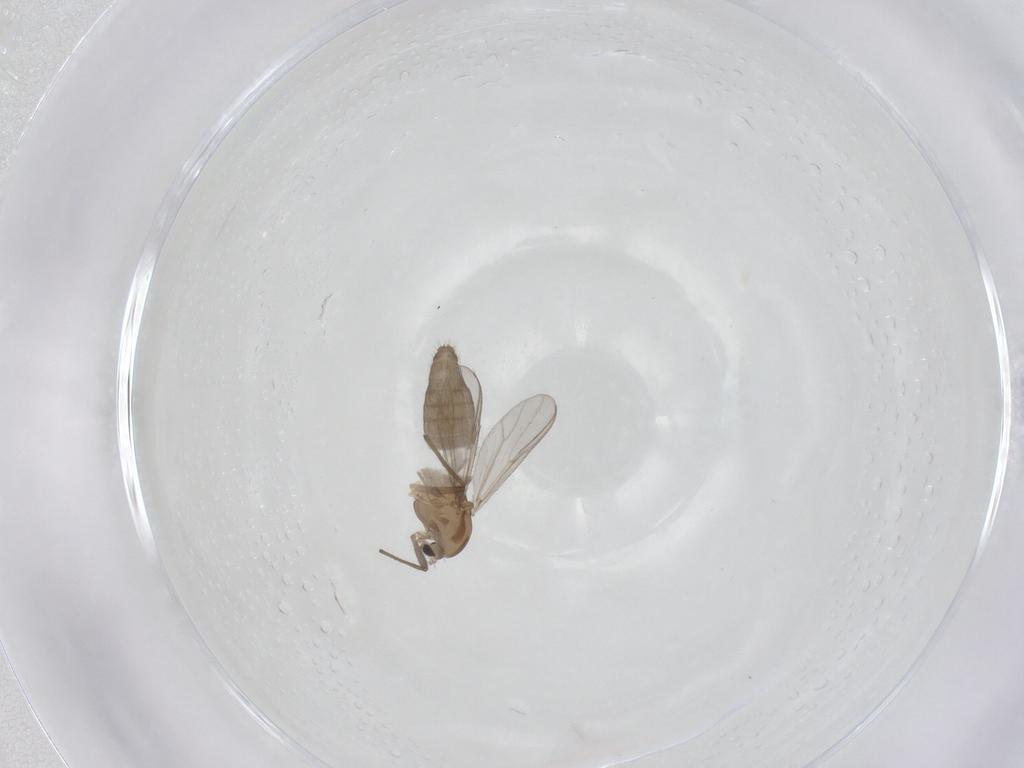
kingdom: Animalia
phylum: Arthropoda
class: Insecta
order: Diptera
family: Chironomidae
